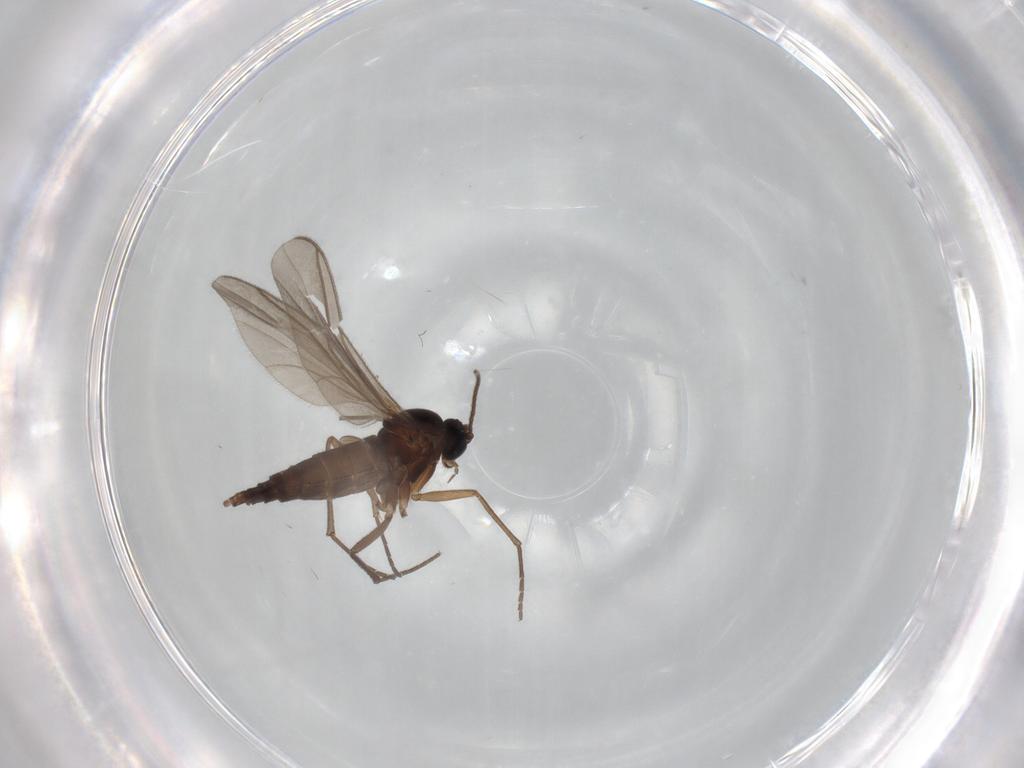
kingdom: Animalia
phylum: Arthropoda
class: Insecta
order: Diptera
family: Sciaridae
